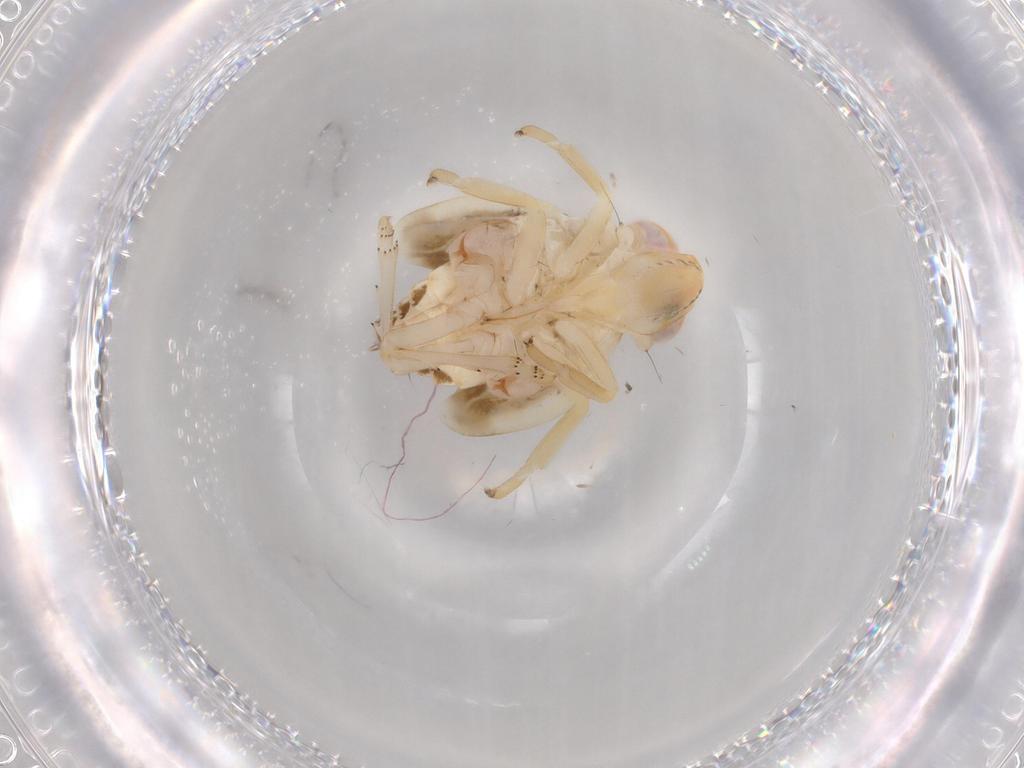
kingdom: Animalia
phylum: Arthropoda
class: Insecta
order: Hemiptera
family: Nogodinidae
